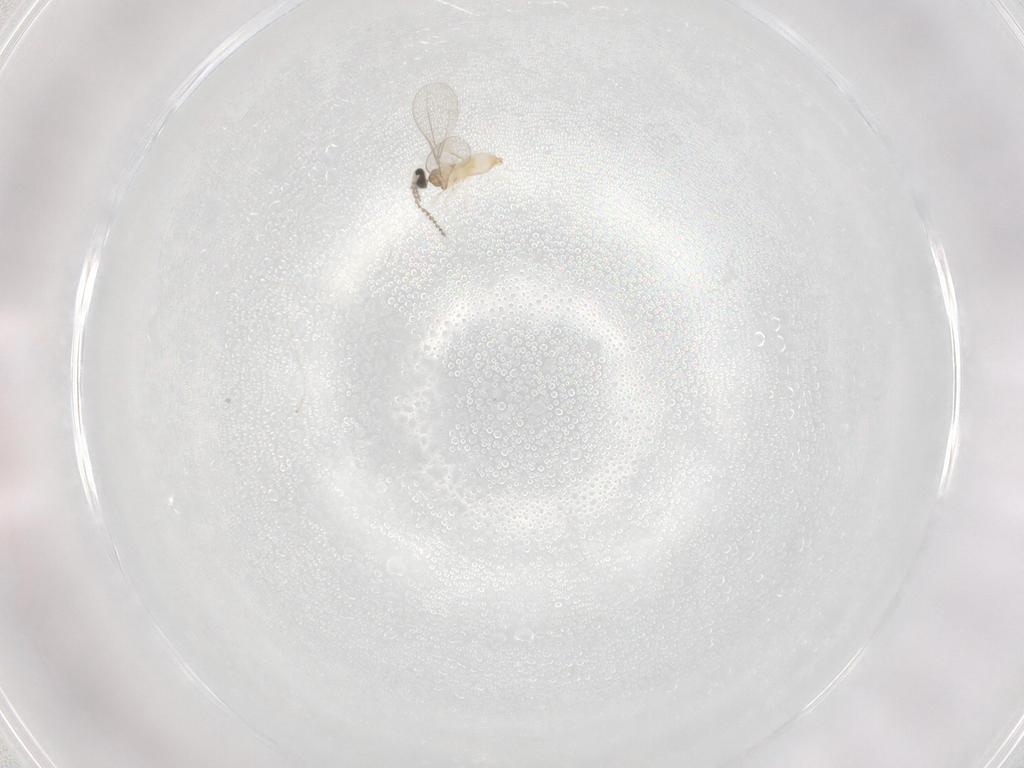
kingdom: Animalia
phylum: Arthropoda
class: Insecta
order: Diptera
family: Cecidomyiidae
